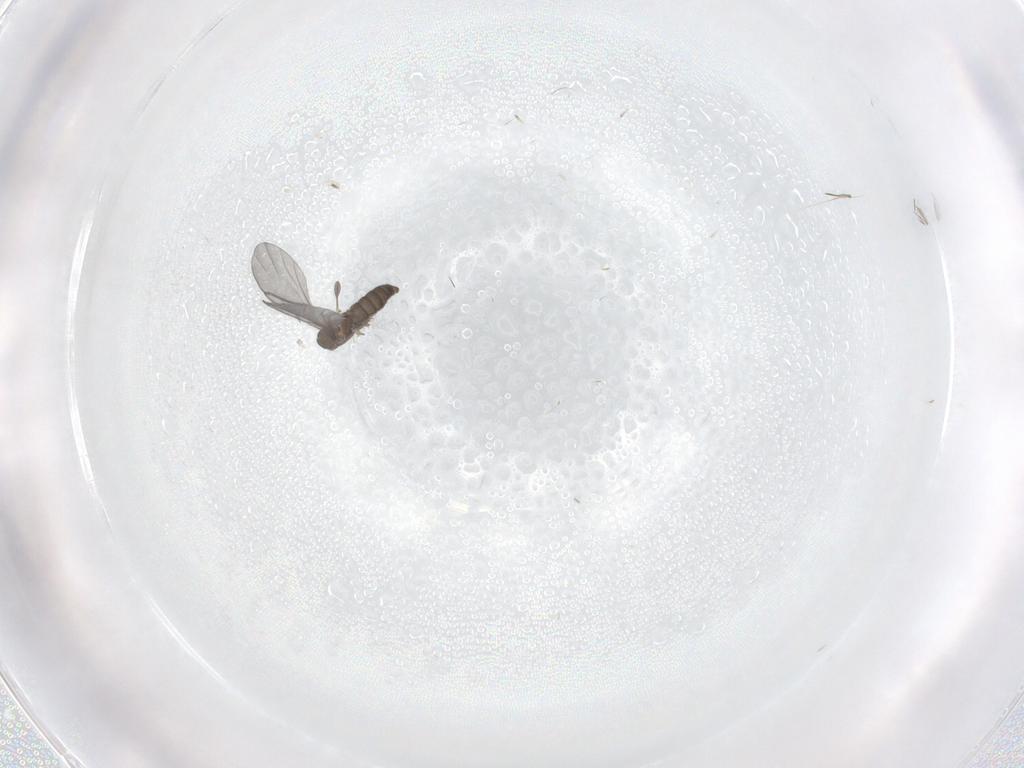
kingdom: Animalia
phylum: Arthropoda
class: Insecta
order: Diptera
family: Sciaridae
